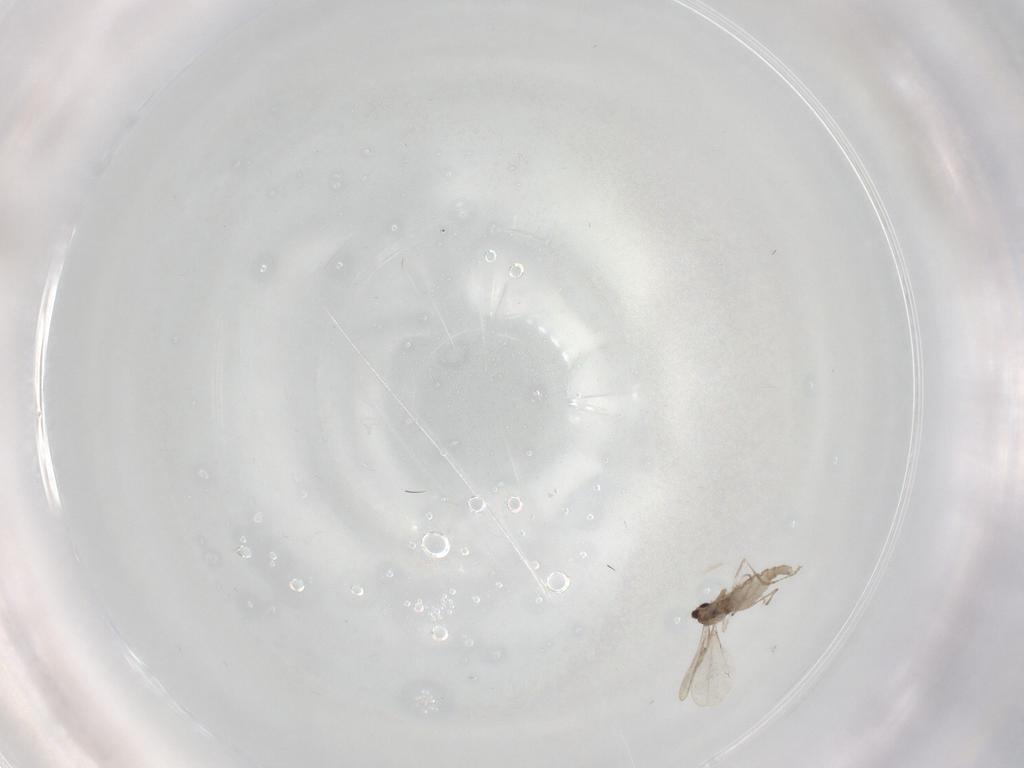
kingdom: Animalia
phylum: Arthropoda
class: Insecta
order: Diptera
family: Cecidomyiidae
